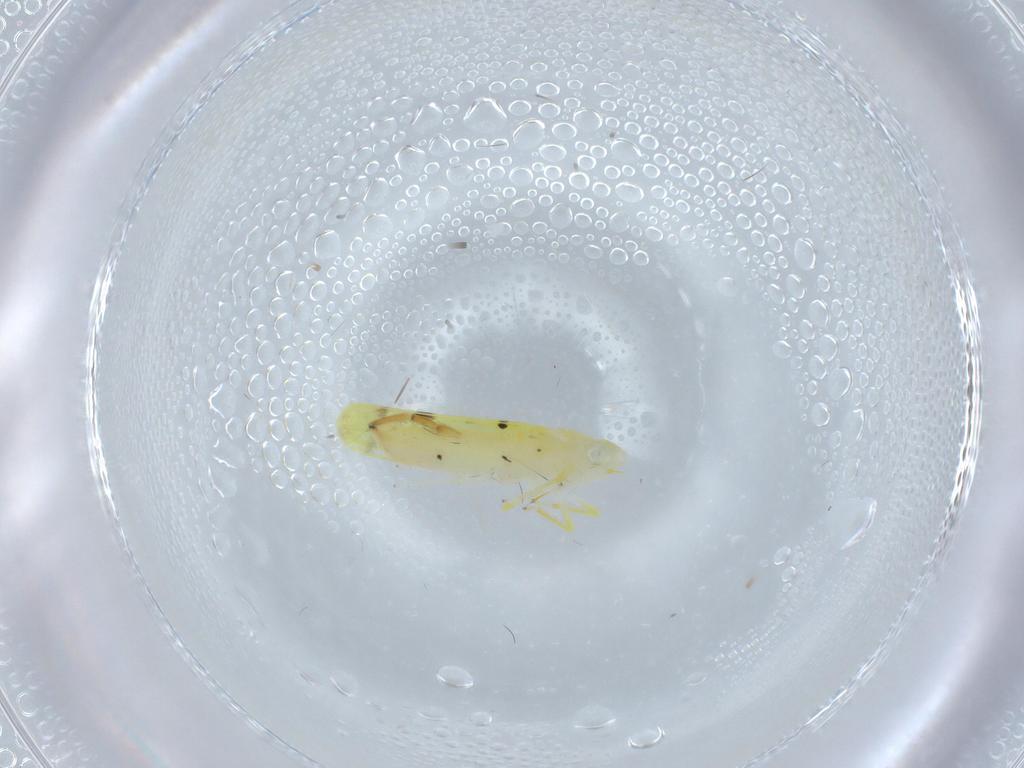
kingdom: Animalia
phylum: Arthropoda
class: Insecta
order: Hemiptera
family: Cicadellidae
